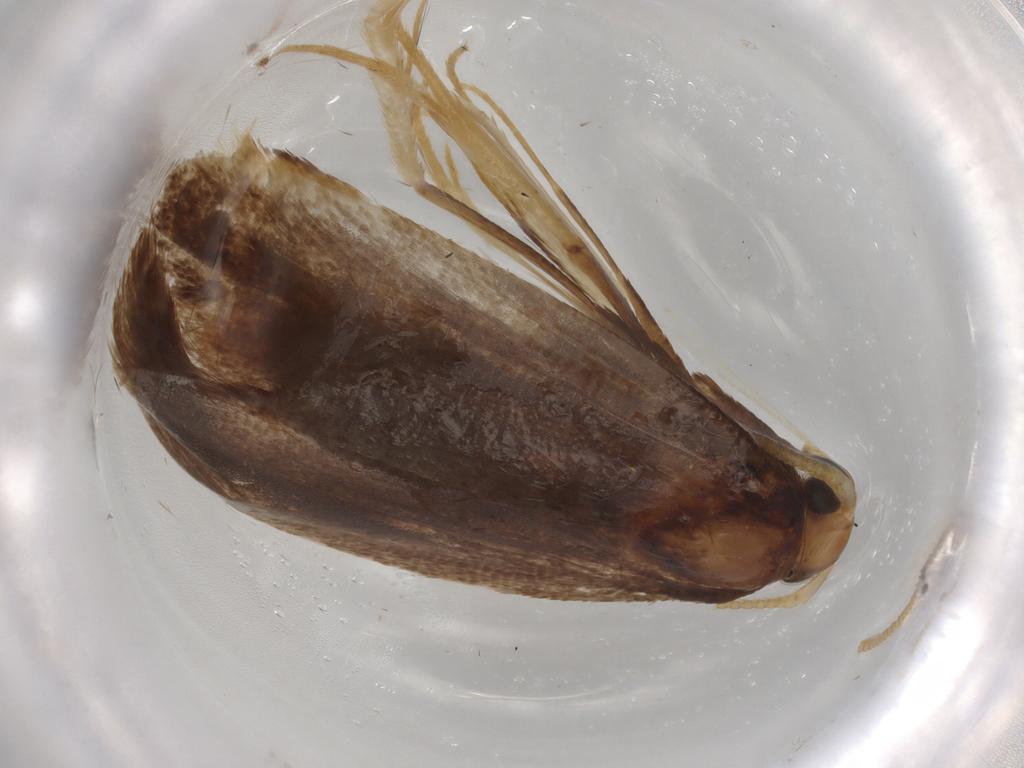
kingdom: Animalia
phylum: Arthropoda
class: Insecta
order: Lepidoptera
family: Lecithoceridae
